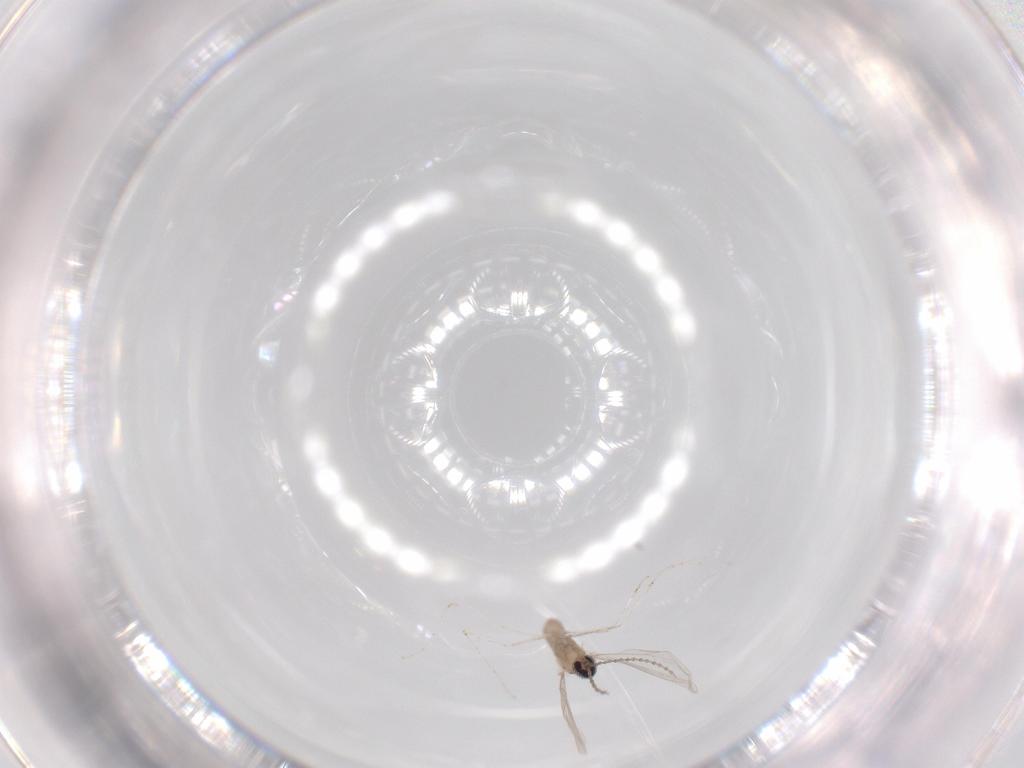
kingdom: Animalia
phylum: Arthropoda
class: Insecta
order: Diptera
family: Cecidomyiidae
